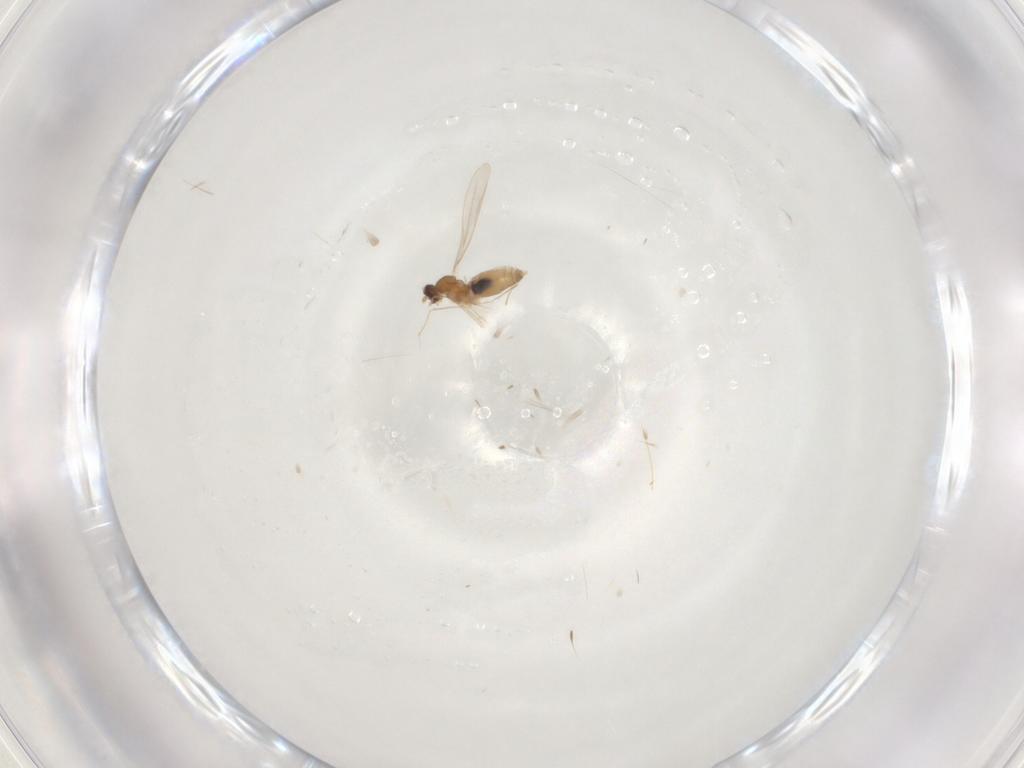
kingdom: Animalia
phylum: Arthropoda
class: Insecta
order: Diptera
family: Cecidomyiidae
